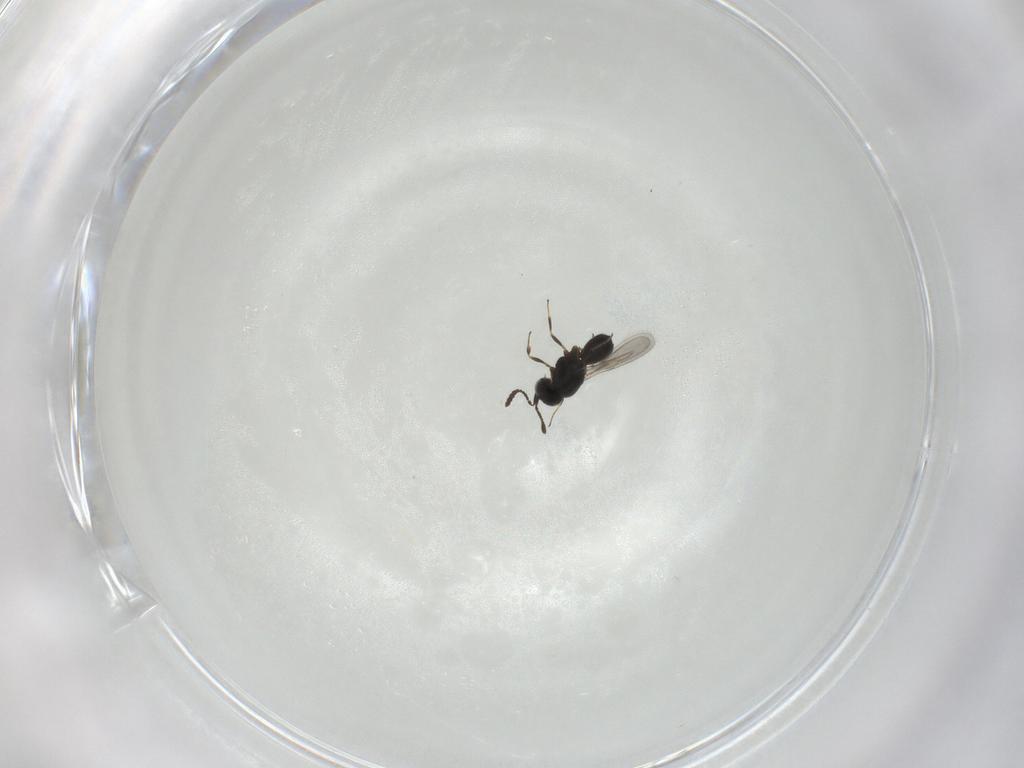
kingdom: Animalia
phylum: Arthropoda
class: Insecta
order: Hymenoptera
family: Scelionidae
